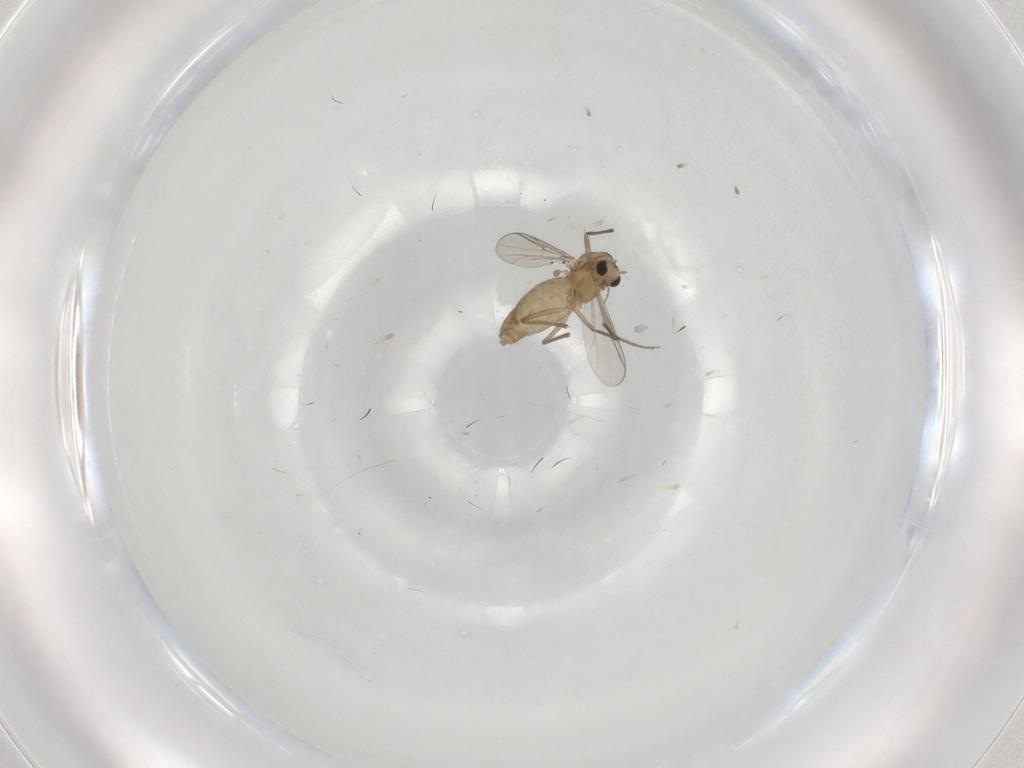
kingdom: Animalia
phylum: Arthropoda
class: Insecta
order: Diptera
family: Chironomidae
